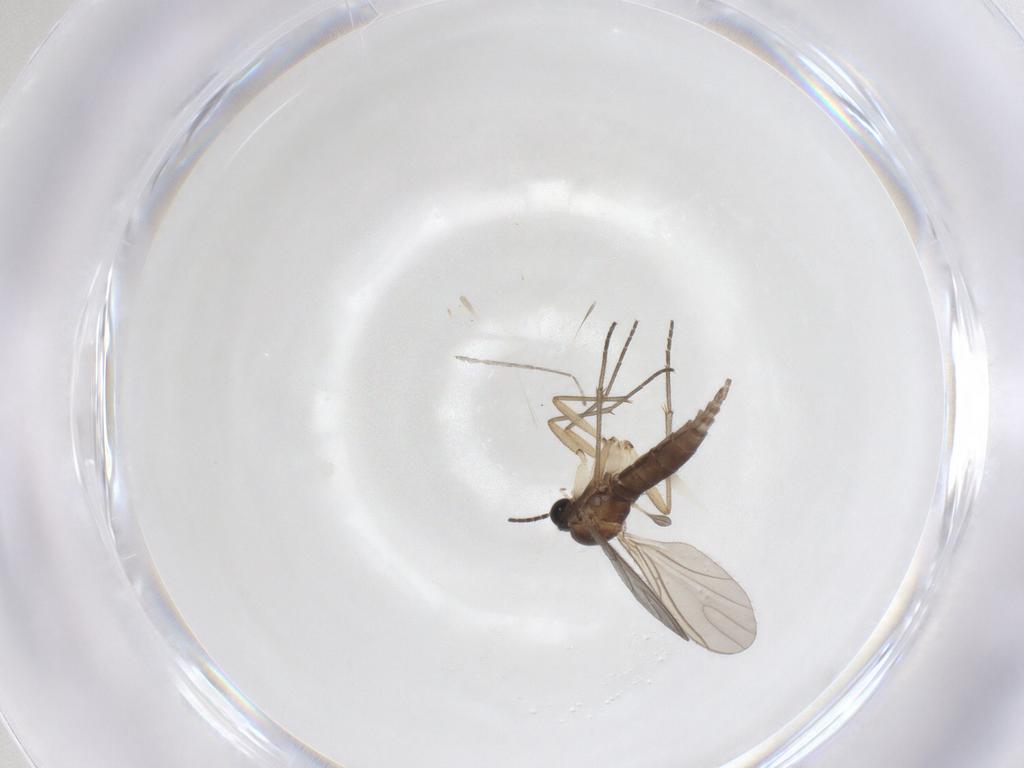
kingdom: Animalia
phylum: Arthropoda
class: Insecta
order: Diptera
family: Sciaridae
